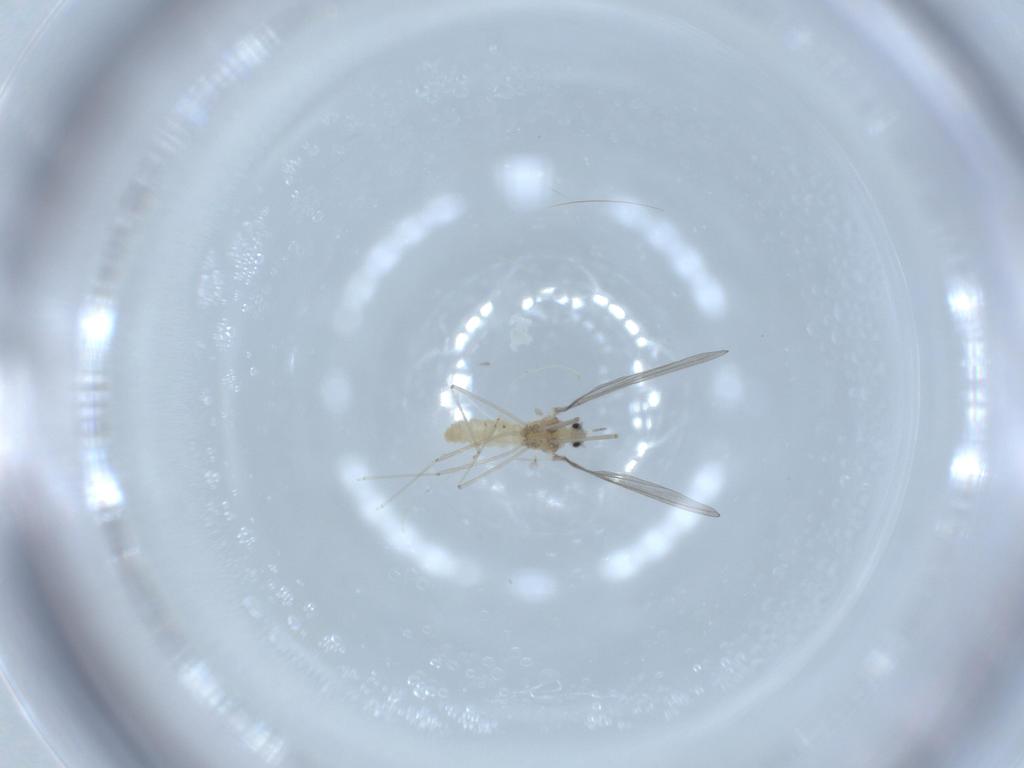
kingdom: Animalia
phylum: Arthropoda
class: Insecta
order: Diptera
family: Cecidomyiidae
